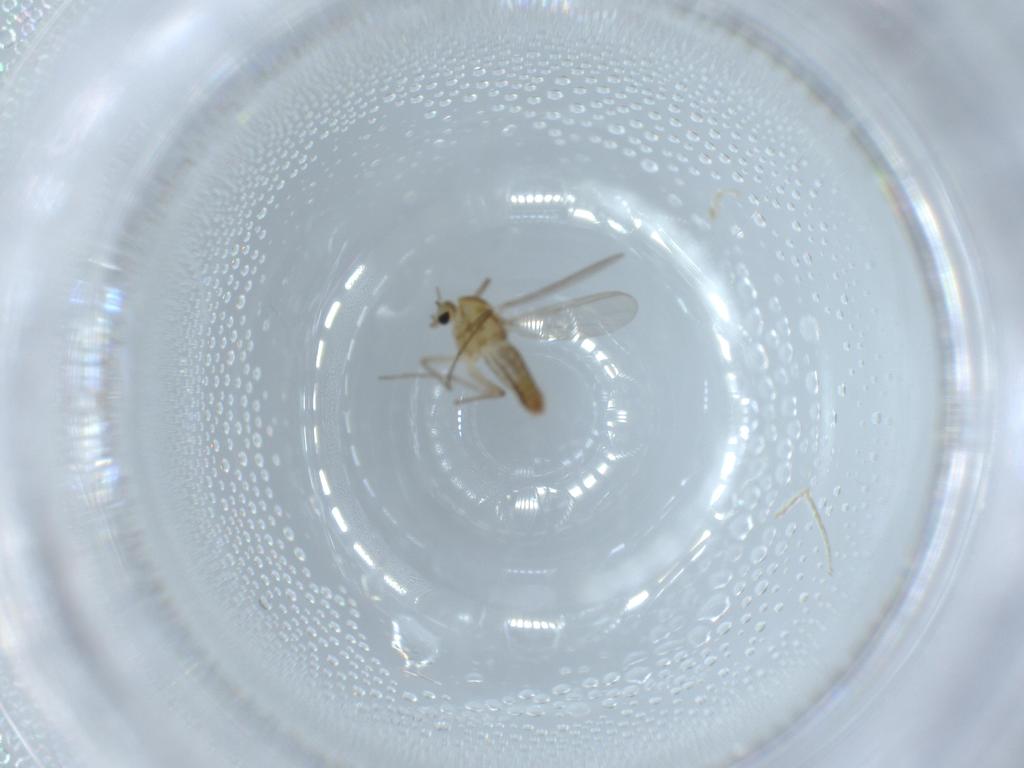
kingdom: Animalia
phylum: Arthropoda
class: Insecta
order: Diptera
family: Chironomidae
